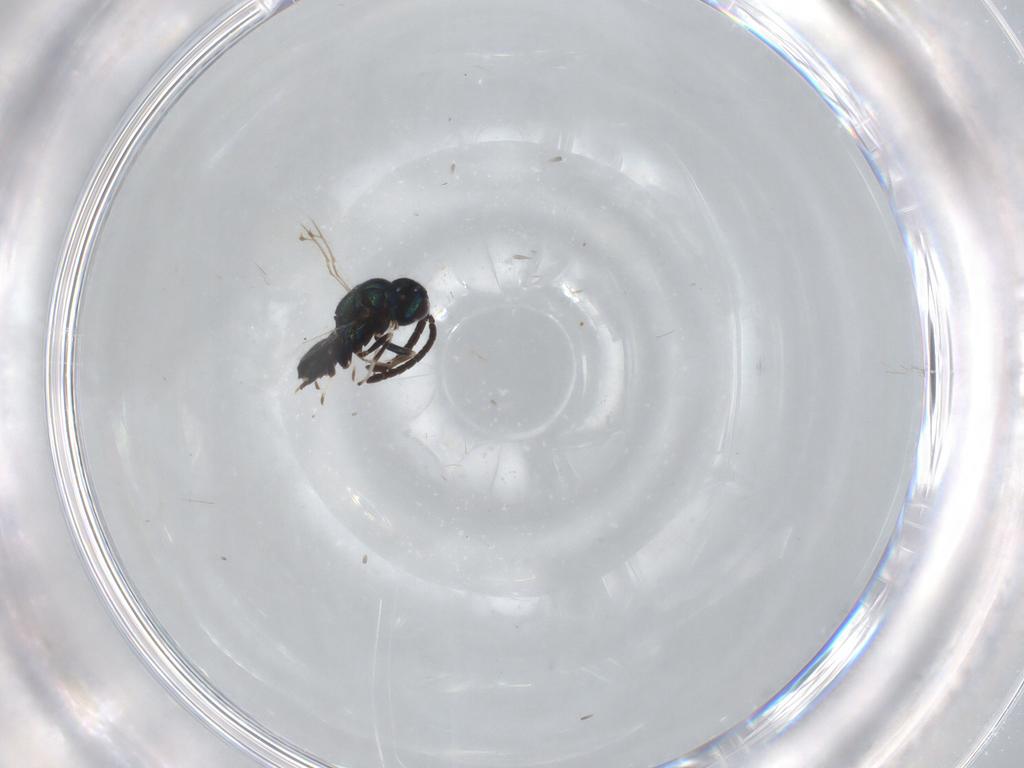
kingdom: Animalia
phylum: Arthropoda
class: Insecta
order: Hymenoptera
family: Eupelmidae
